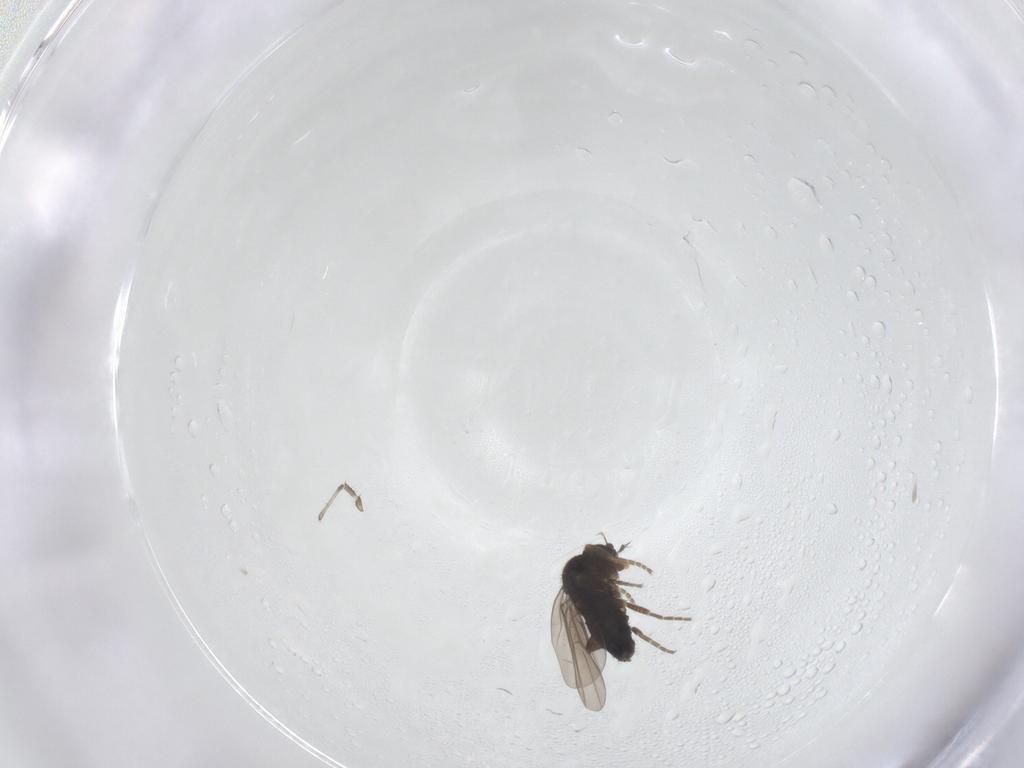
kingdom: Animalia
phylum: Arthropoda
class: Insecta
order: Diptera
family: Phoridae
